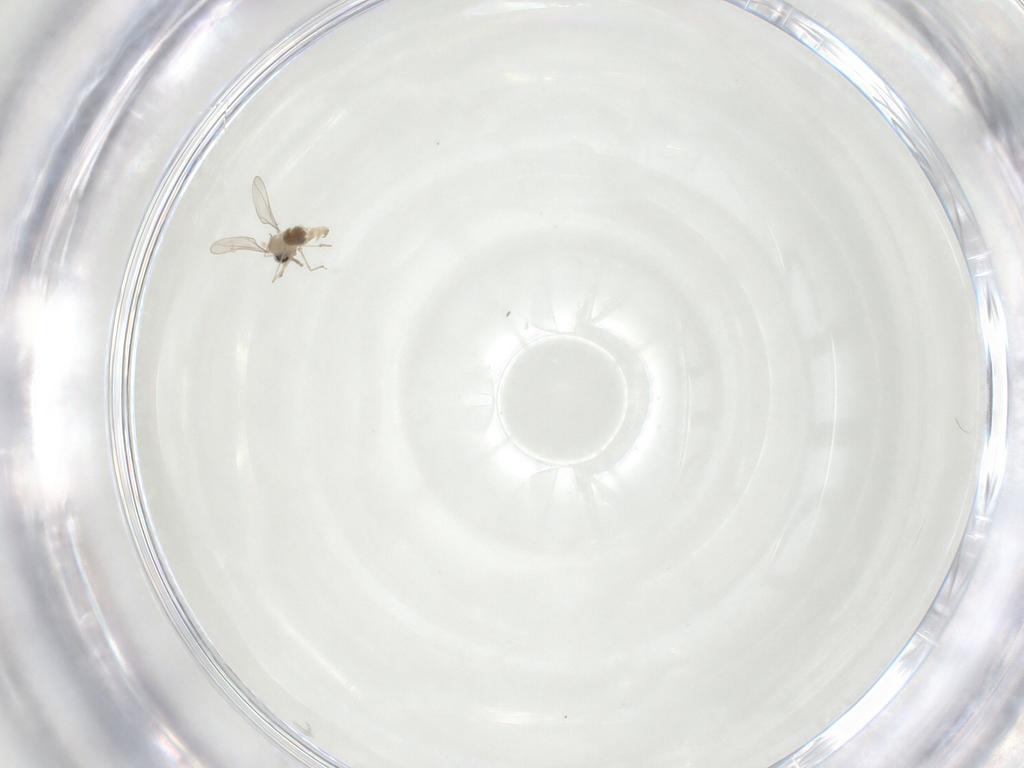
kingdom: Animalia
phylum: Arthropoda
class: Insecta
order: Diptera
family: Cecidomyiidae
